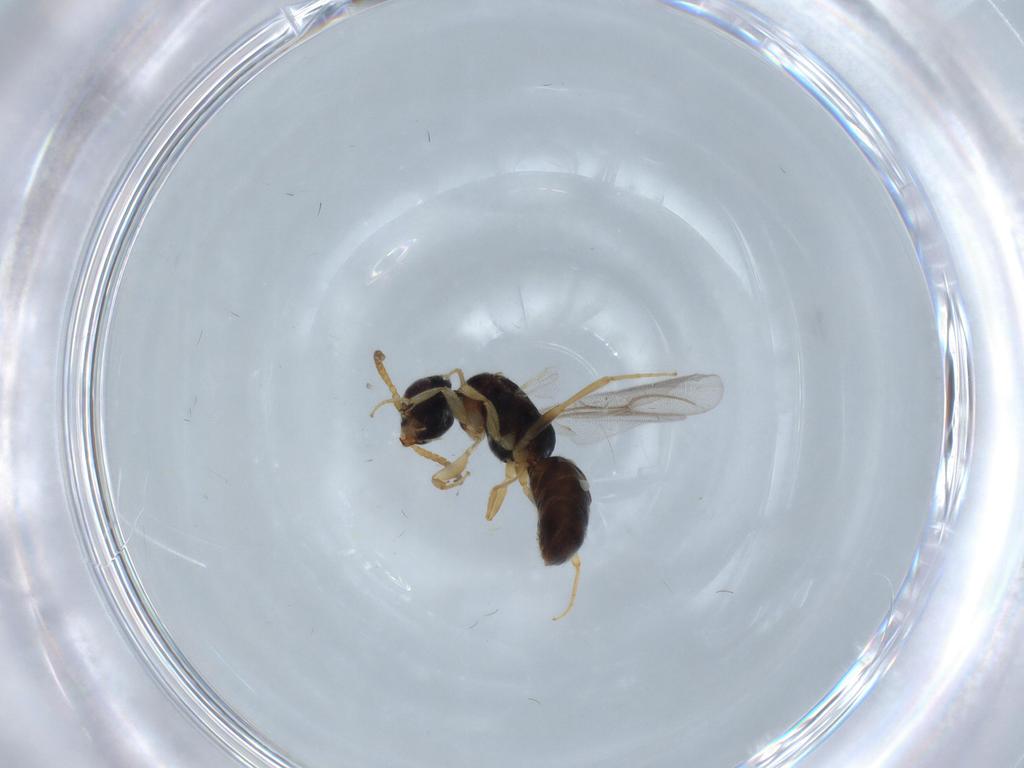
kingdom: Animalia
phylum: Arthropoda
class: Insecta
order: Hymenoptera
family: Bethylidae
